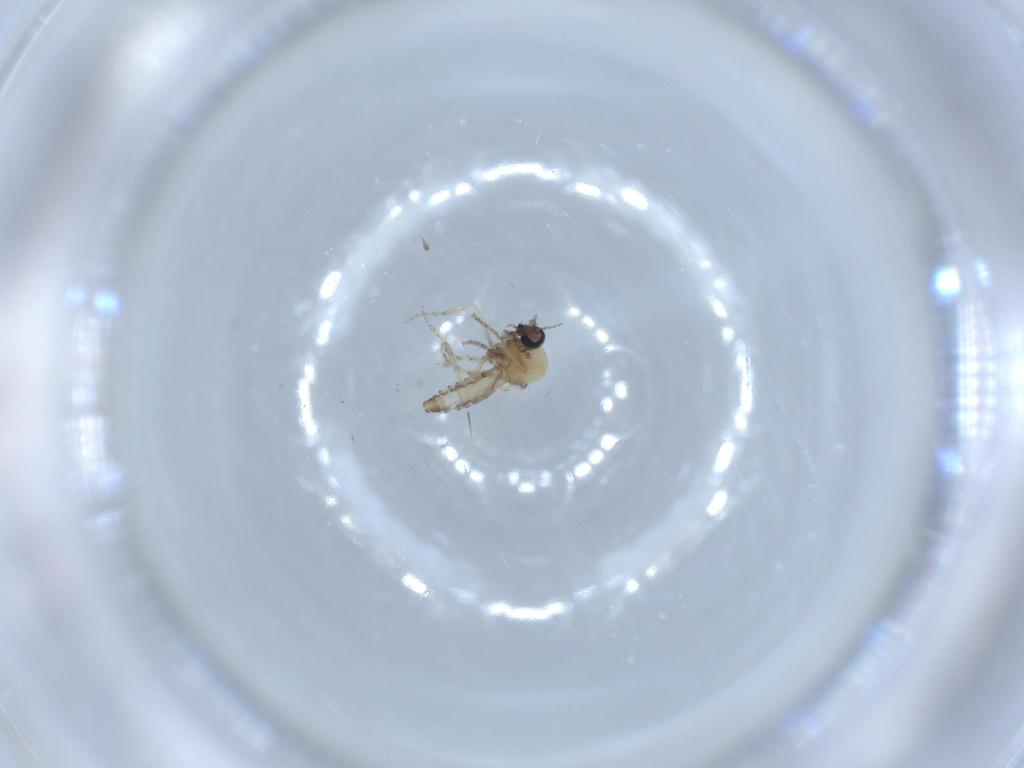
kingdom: Animalia
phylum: Arthropoda
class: Insecta
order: Diptera
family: Ceratopogonidae
